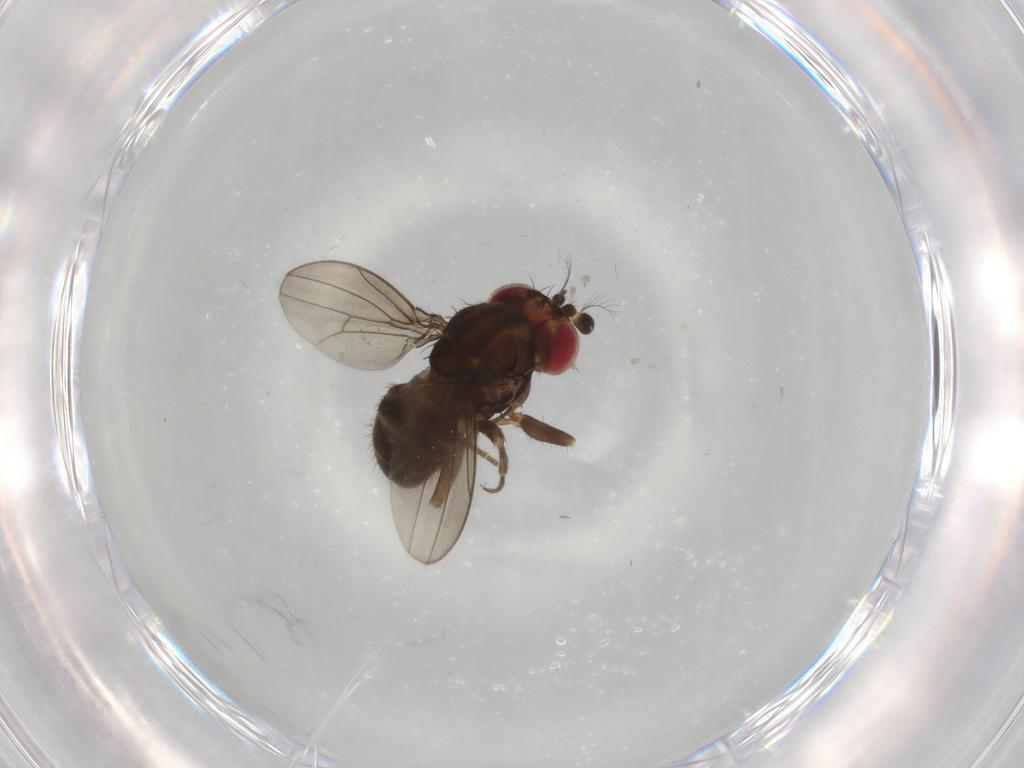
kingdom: Animalia
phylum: Arthropoda
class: Insecta
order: Diptera
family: Drosophilidae
